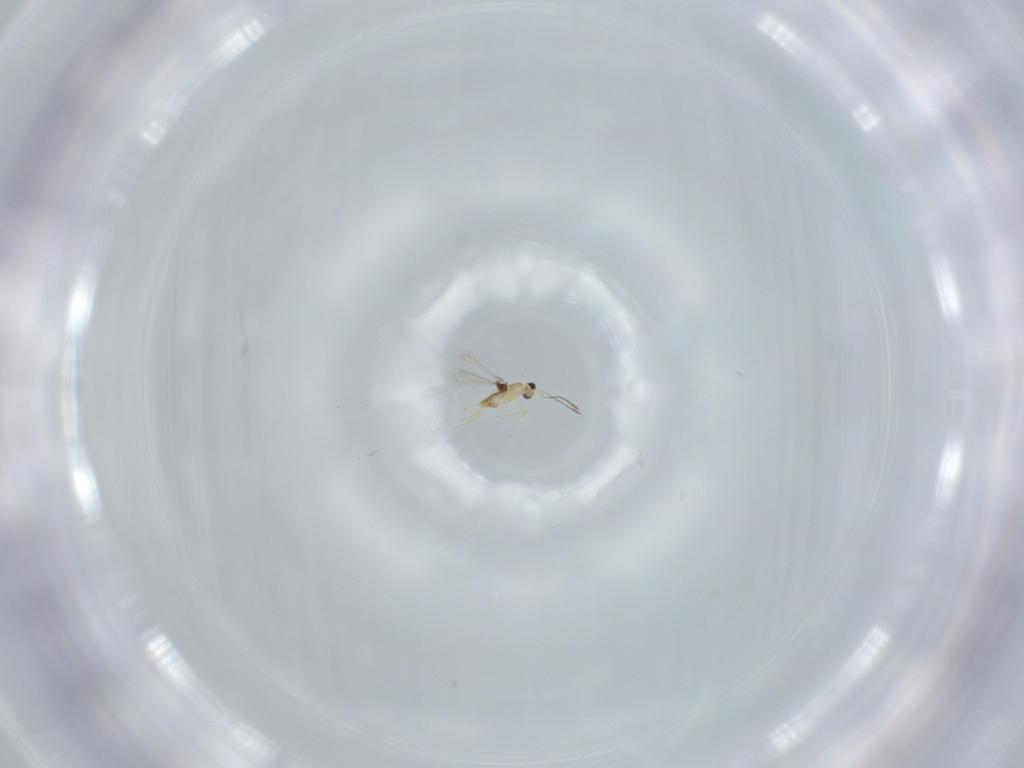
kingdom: Animalia
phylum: Arthropoda
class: Insecta
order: Hymenoptera
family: Mymaridae
